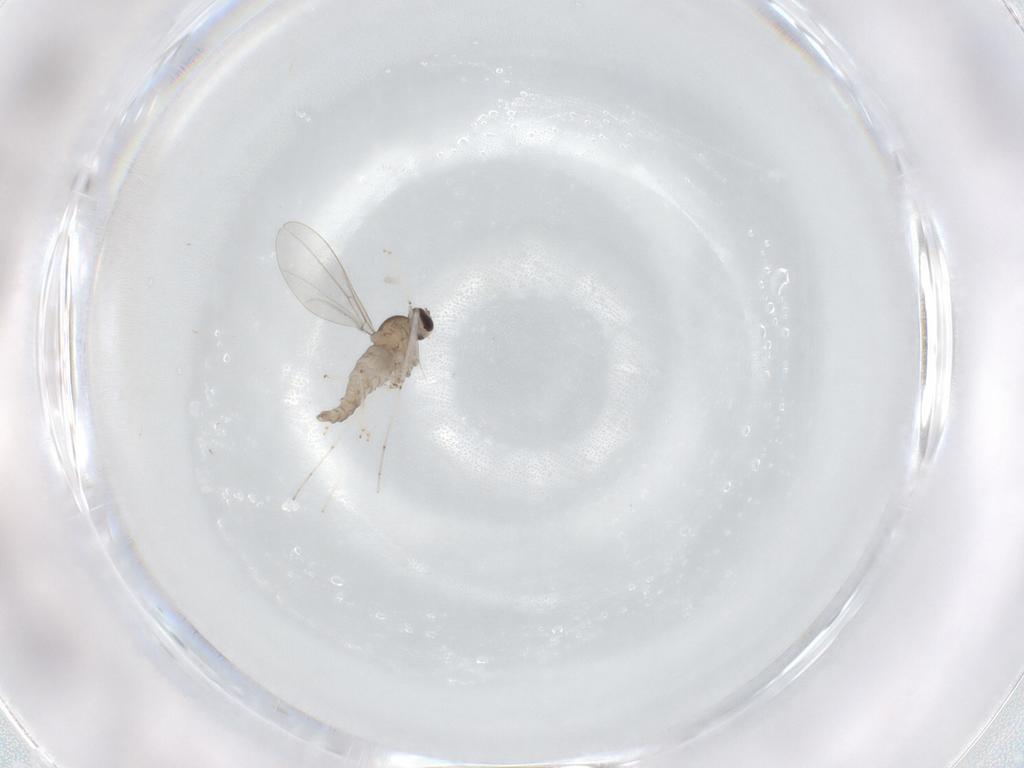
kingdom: Animalia
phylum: Arthropoda
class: Insecta
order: Diptera
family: Cecidomyiidae
